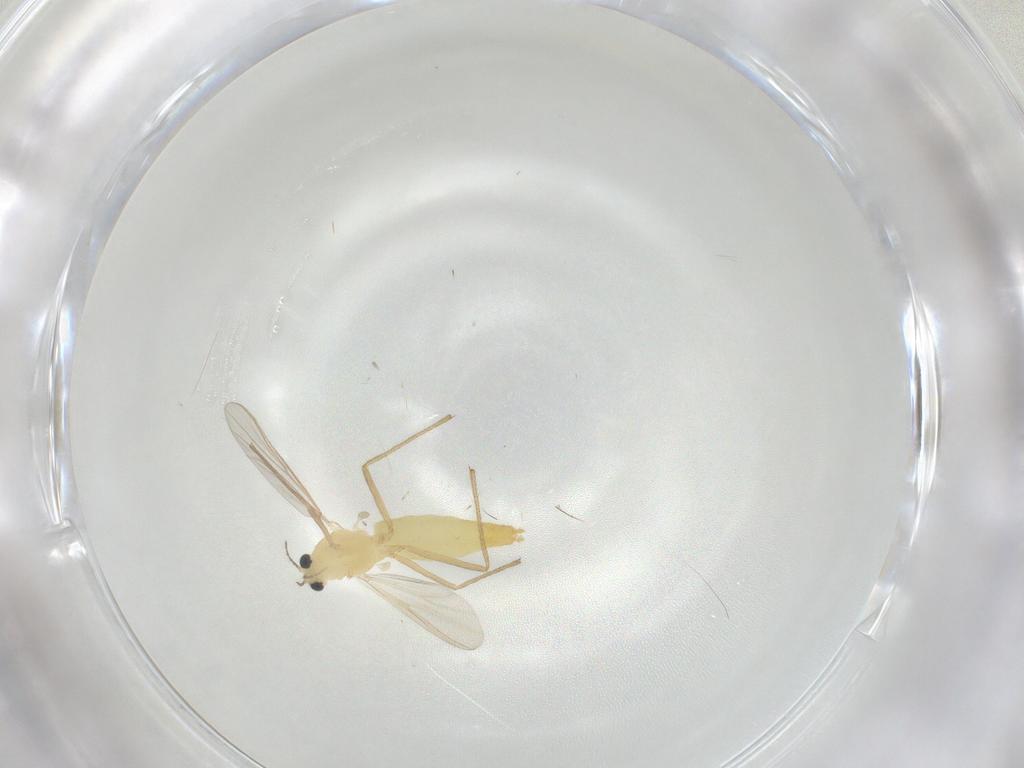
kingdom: Animalia
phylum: Arthropoda
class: Insecta
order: Diptera
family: Chironomidae
